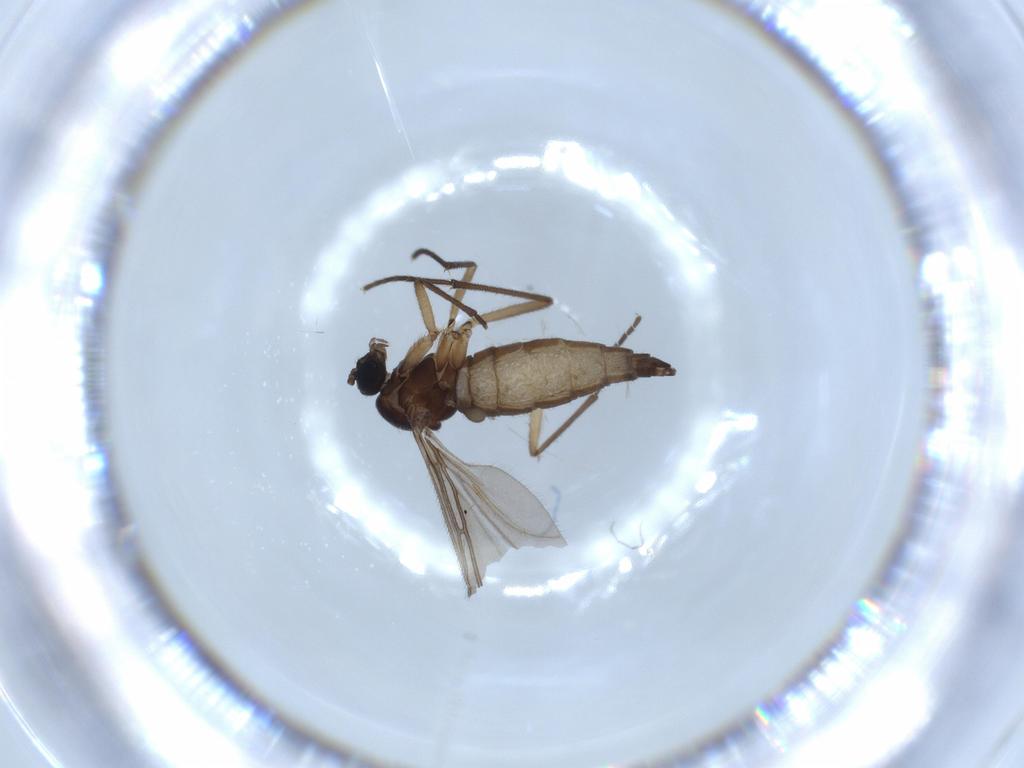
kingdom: Animalia
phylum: Arthropoda
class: Insecta
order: Diptera
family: Sciaridae
